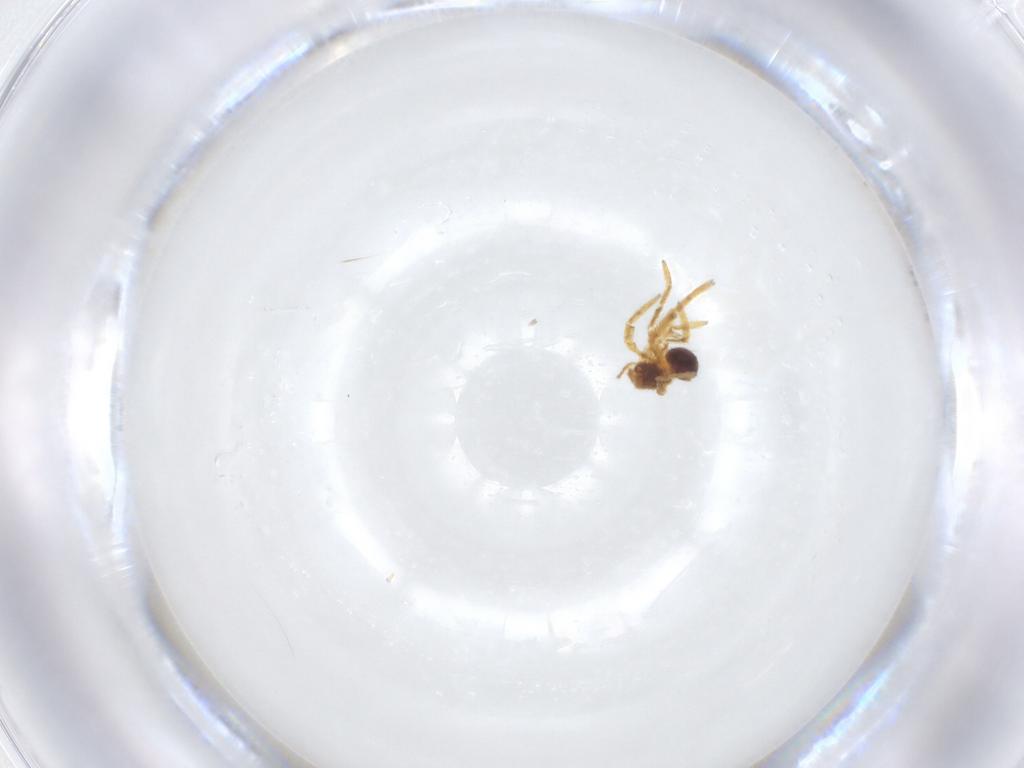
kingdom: Animalia
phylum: Arthropoda
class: Arachnida
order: Araneae
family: Theridiidae
